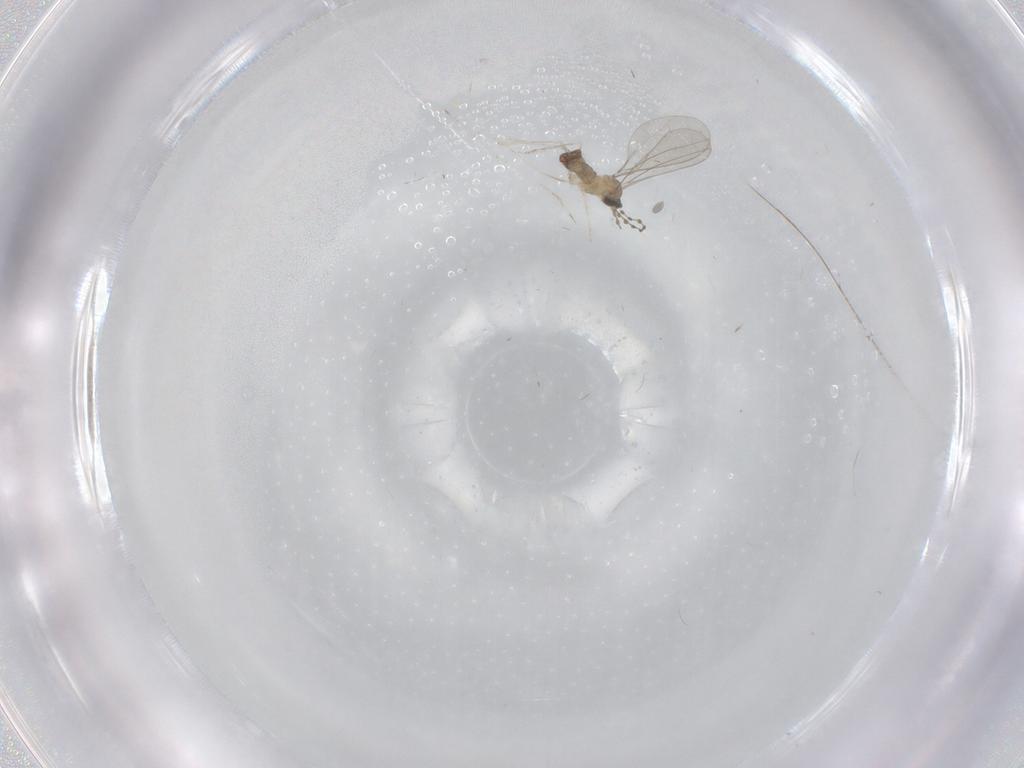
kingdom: Animalia
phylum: Arthropoda
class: Insecta
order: Diptera
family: Cecidomyiidae
